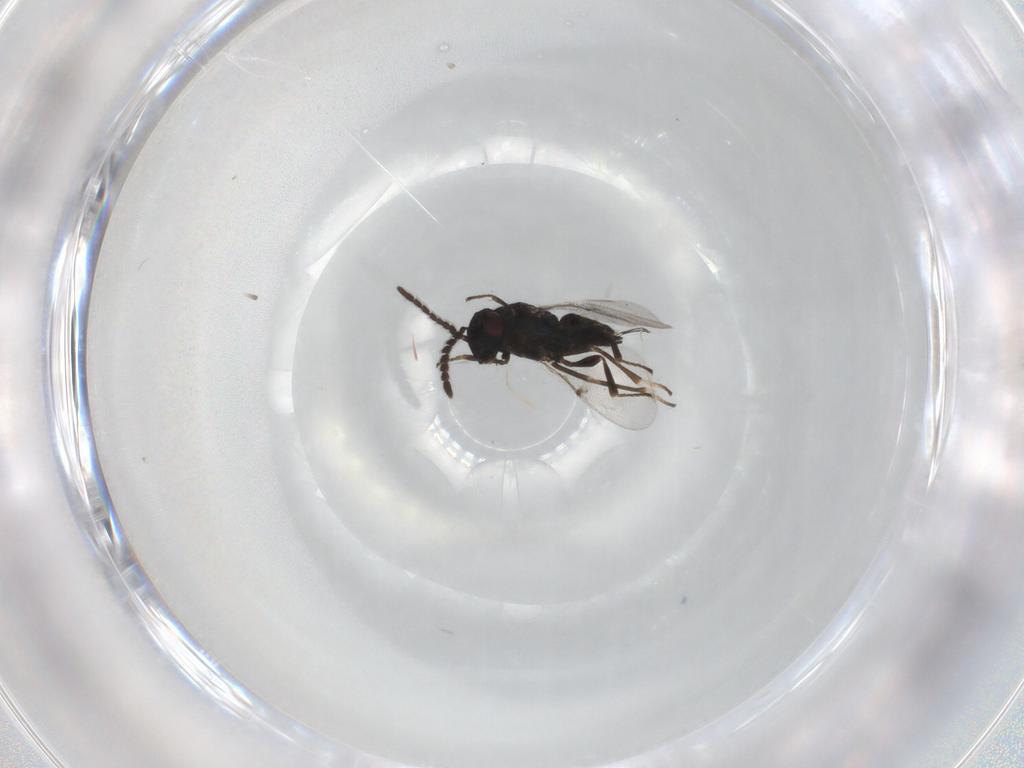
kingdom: Animalia
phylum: Arthropoda
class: Insecta
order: Hymenoptera
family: Encyrtidae
